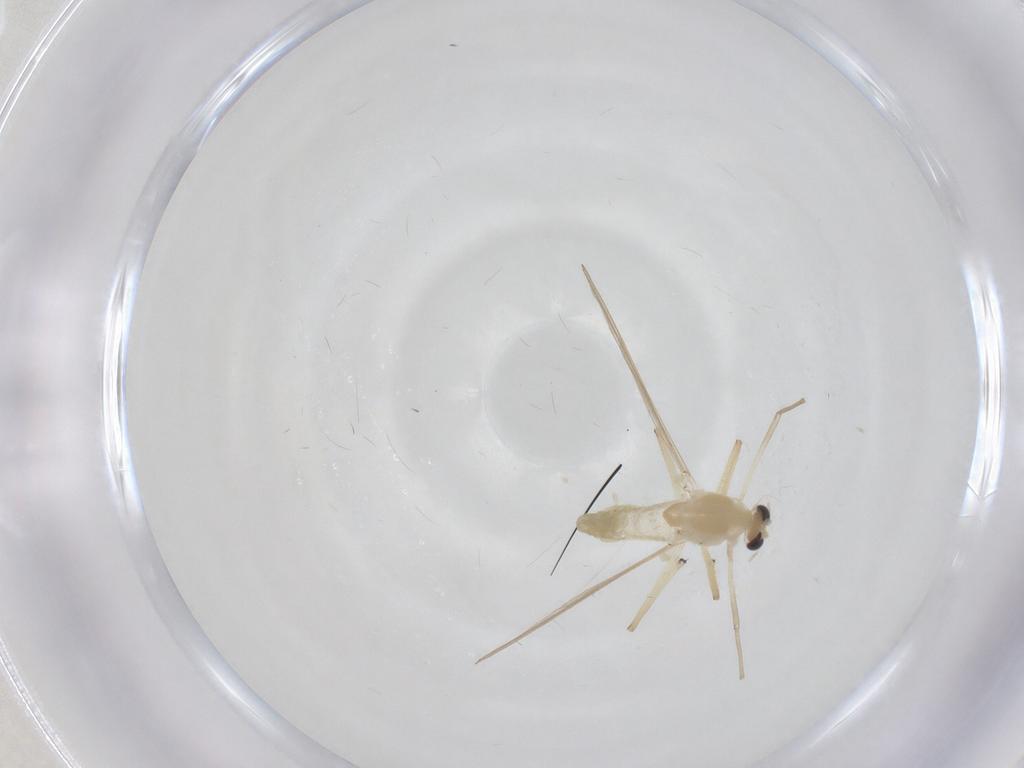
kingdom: Animalia
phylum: Arthropoda
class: Insecta
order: Diptera
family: Chironomidae
